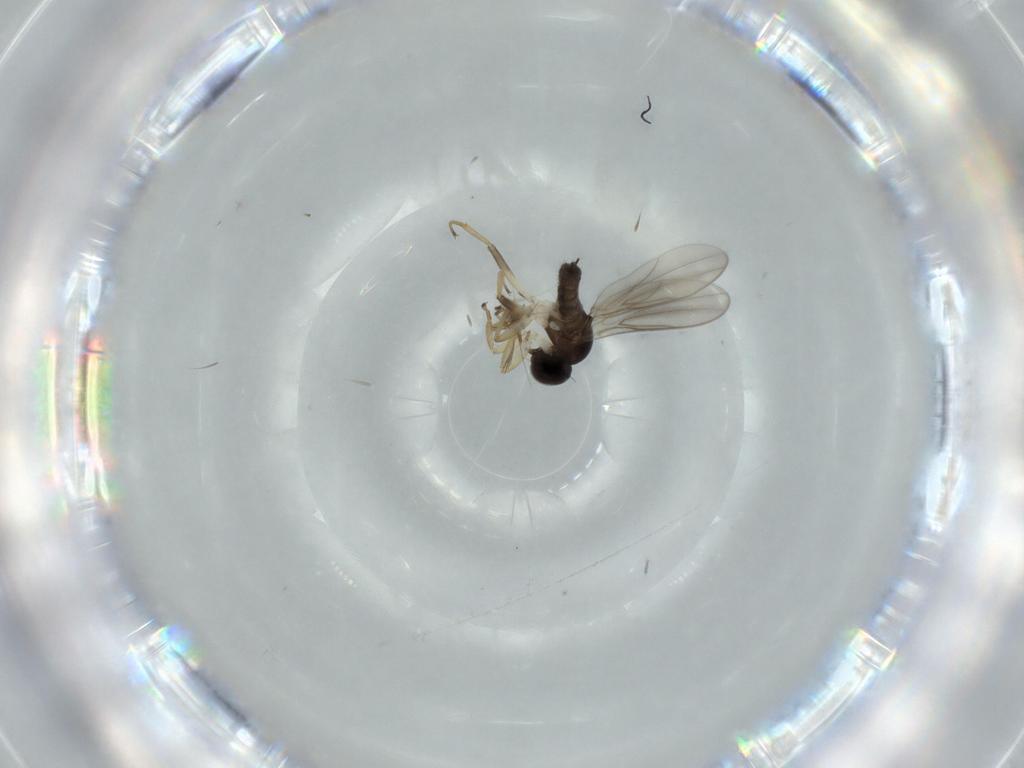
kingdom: Animalia
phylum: Arthropoda
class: Insecta
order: Diptera
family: Hybotidae
